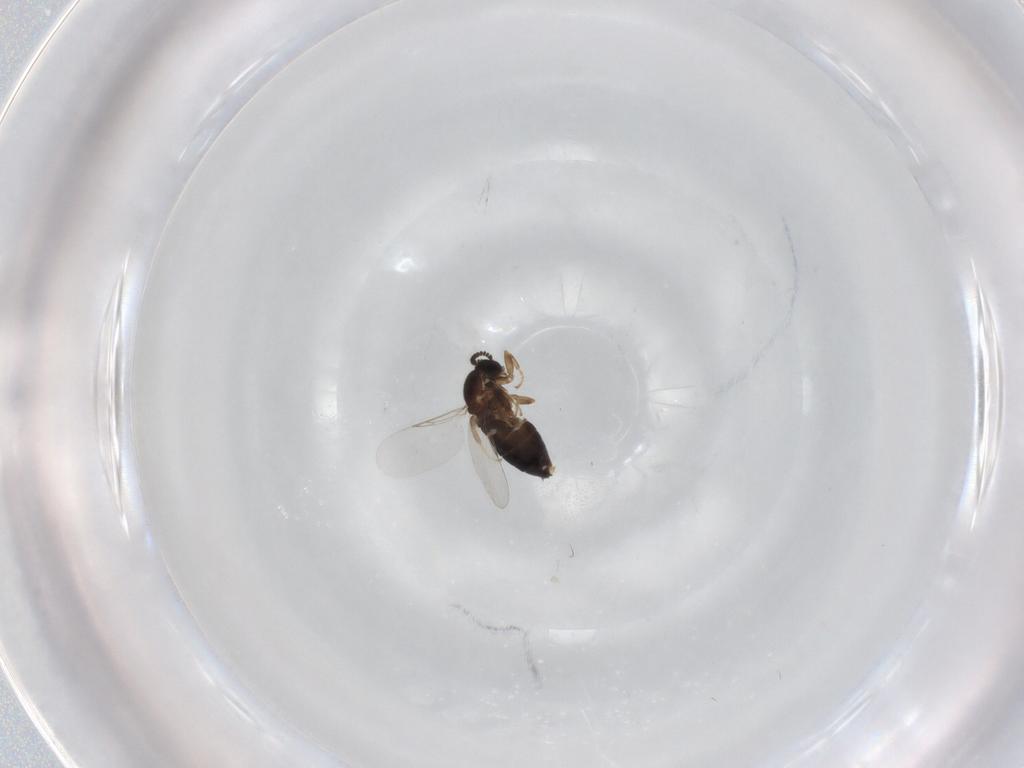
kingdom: Animalia
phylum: Arthropoda
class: Insecta
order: Diptera
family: Scatopsidae
